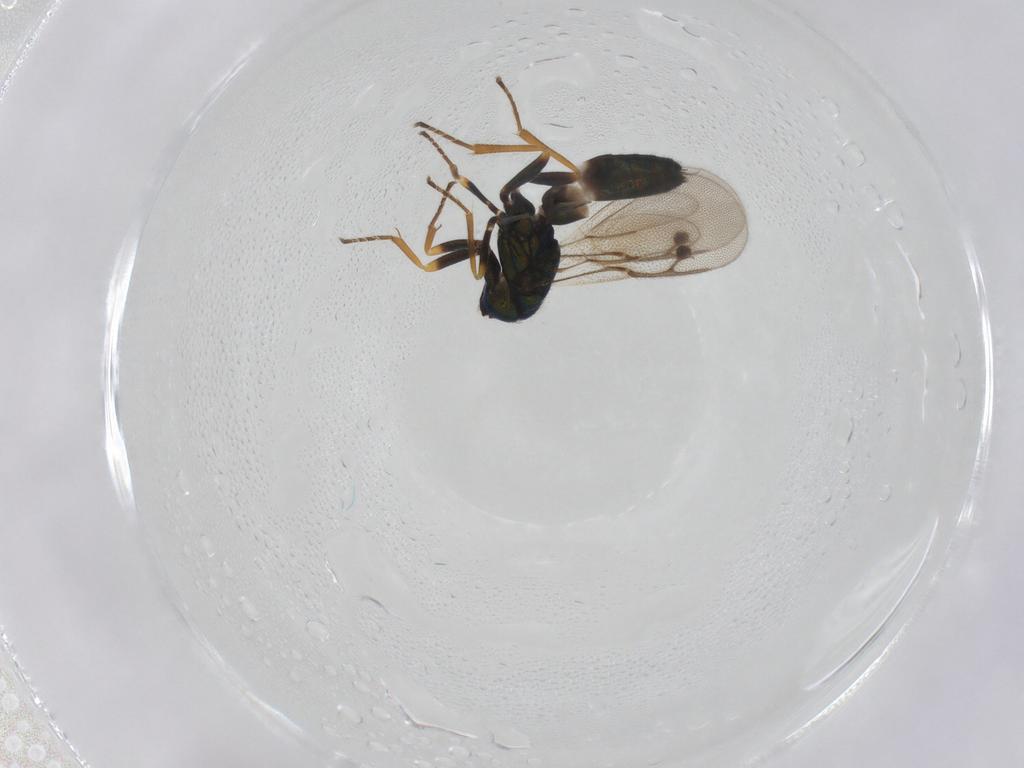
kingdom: Animalia
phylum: Arthropoda
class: Insecta
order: Hymenoptera
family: Pirenidae
